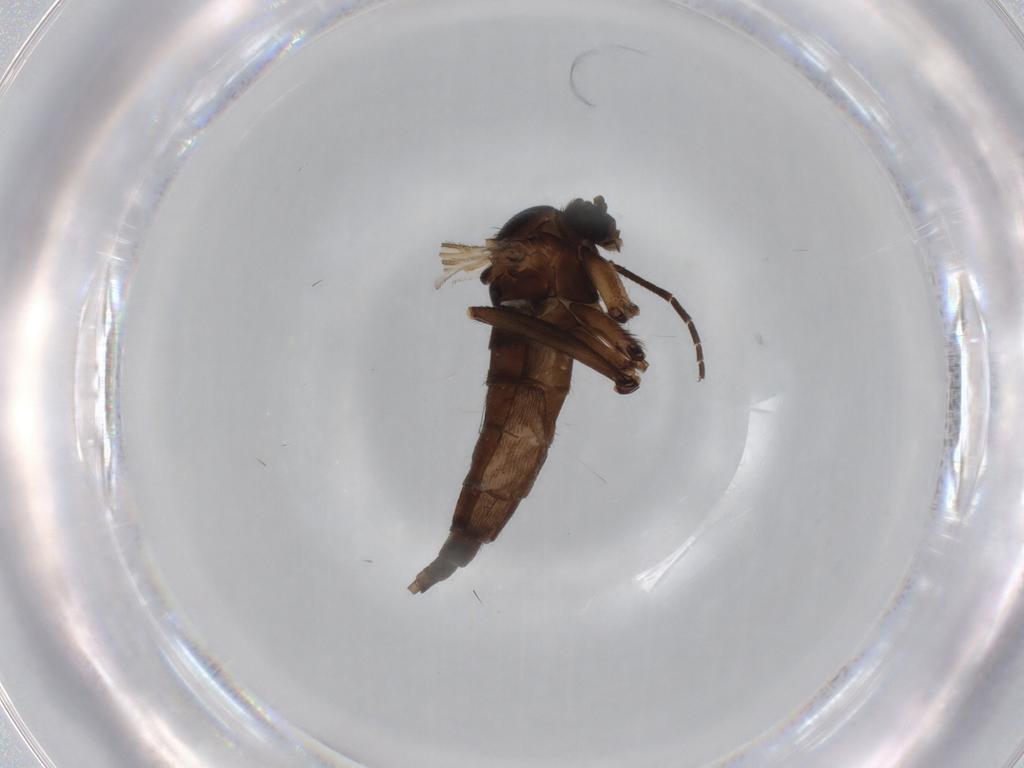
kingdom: Animalia
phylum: Arthropoda
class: Insecta
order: Diptera
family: Sciaridae
